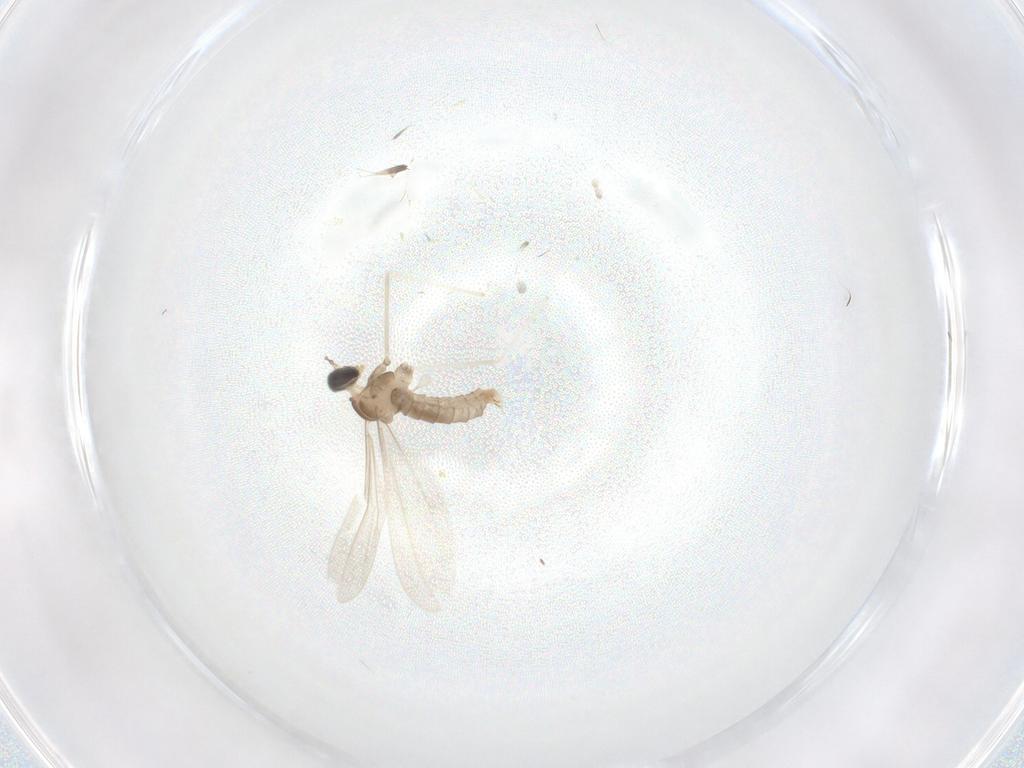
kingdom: Animalia
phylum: Arthropoda
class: Insecta
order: Diptera
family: Cecidomyiidae
